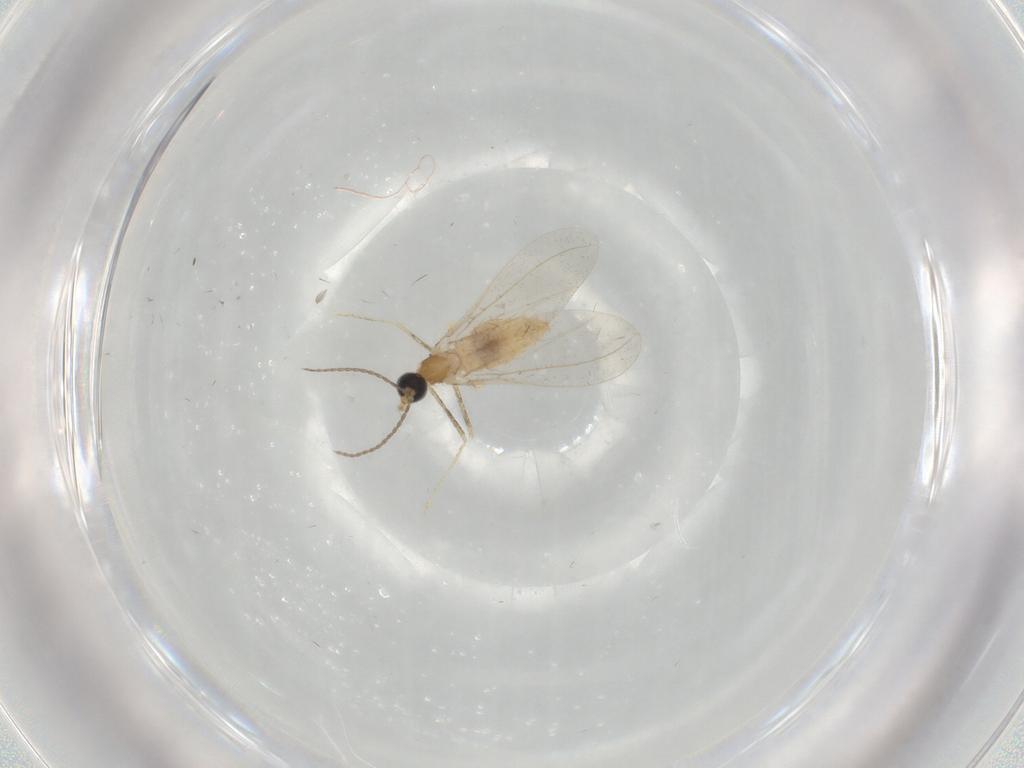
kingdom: Animalia
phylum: Arthropoda
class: Insecta
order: Diptera
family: Cecidomyiidae
